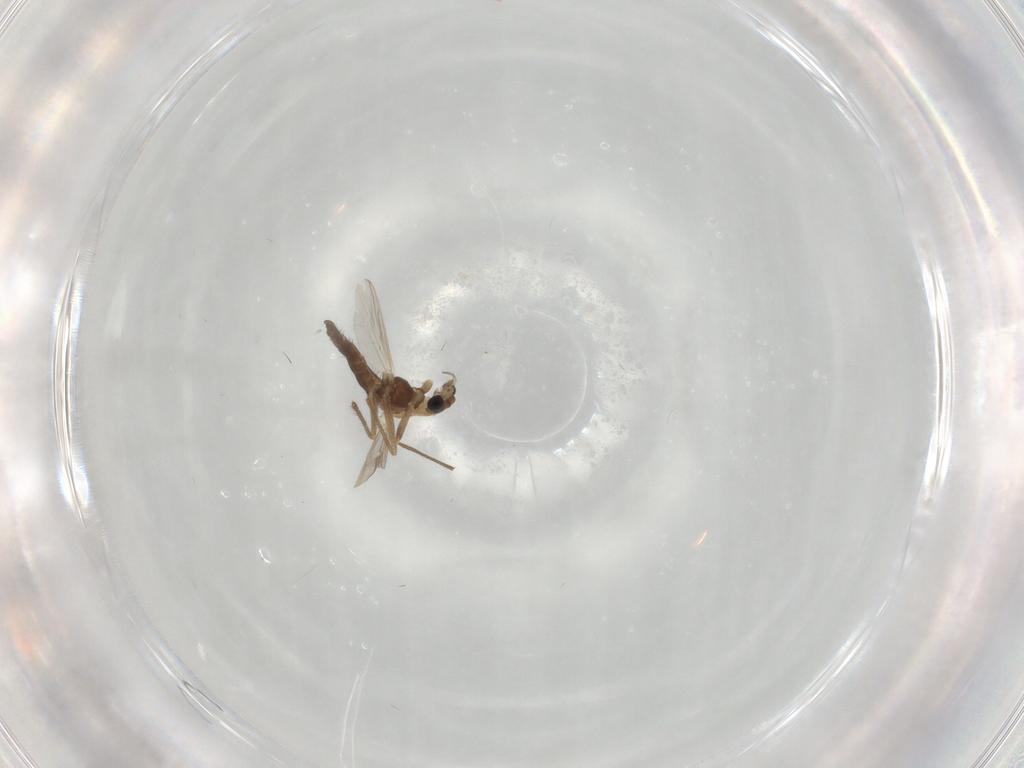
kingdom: Animalia
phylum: Arthropoda
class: Insecta
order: Diptera
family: Chironomidae
